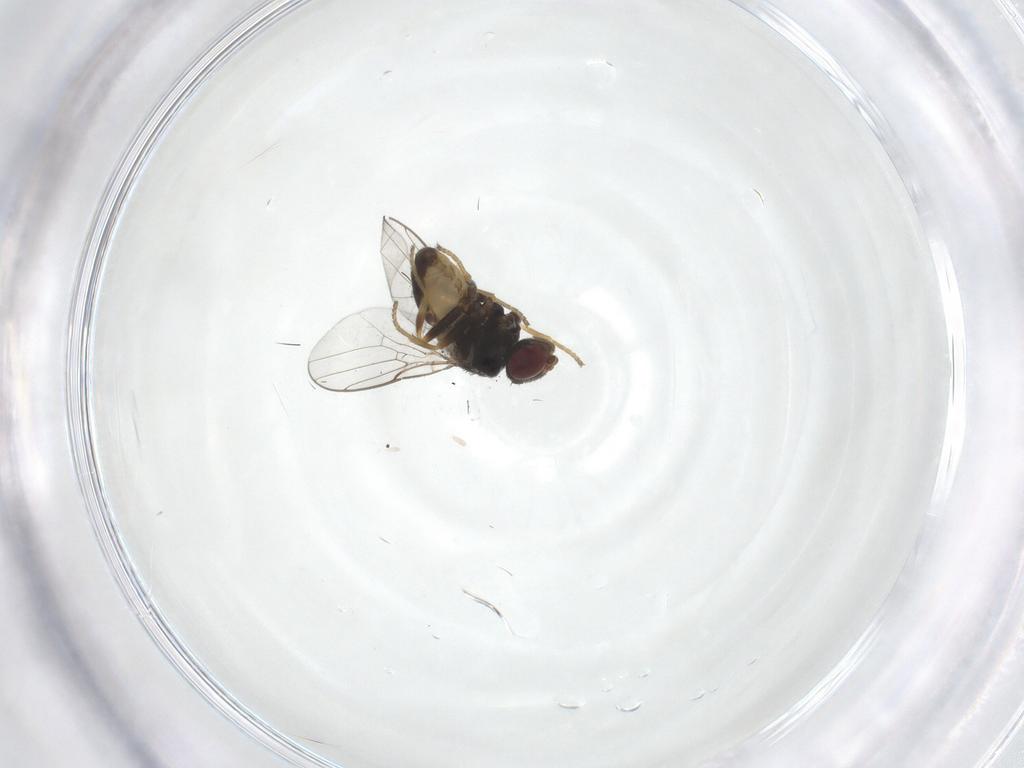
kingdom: Animalia
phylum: Arthropoda
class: Insecta
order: Diptera
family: Chloropidae
